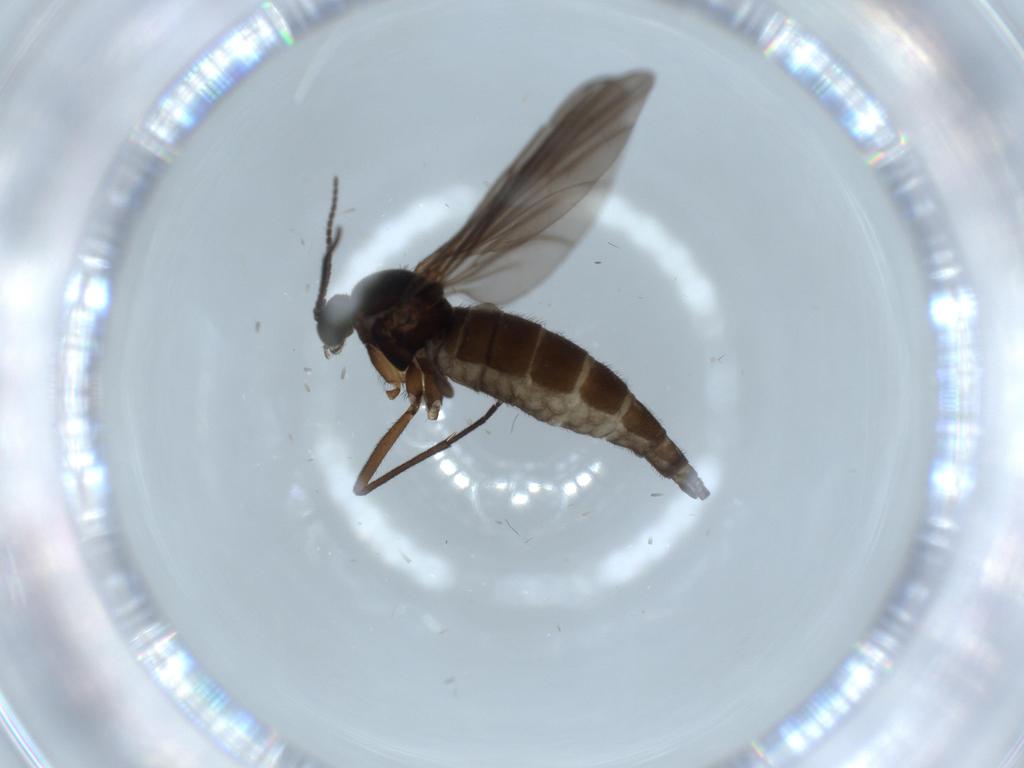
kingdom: Animalia
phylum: Arthropoda
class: Insecta
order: Diptera
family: Sciaridae
